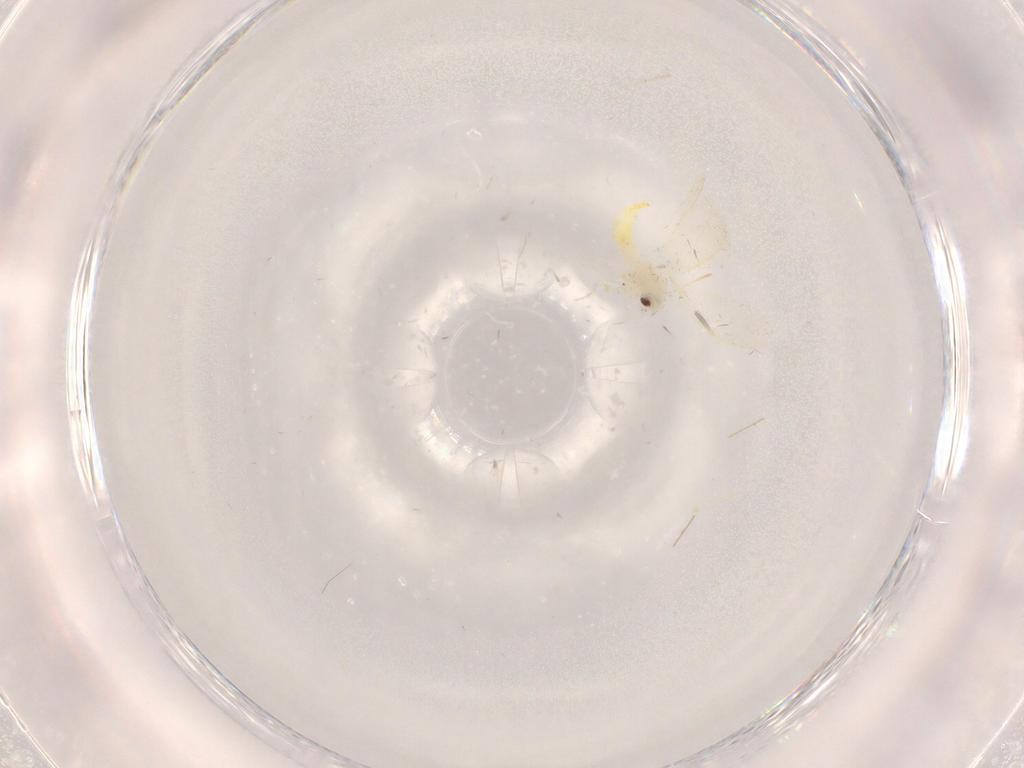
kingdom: Animalia
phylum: Arthropoda
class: Insecta
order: Hemiptera
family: Aleyrodidae
